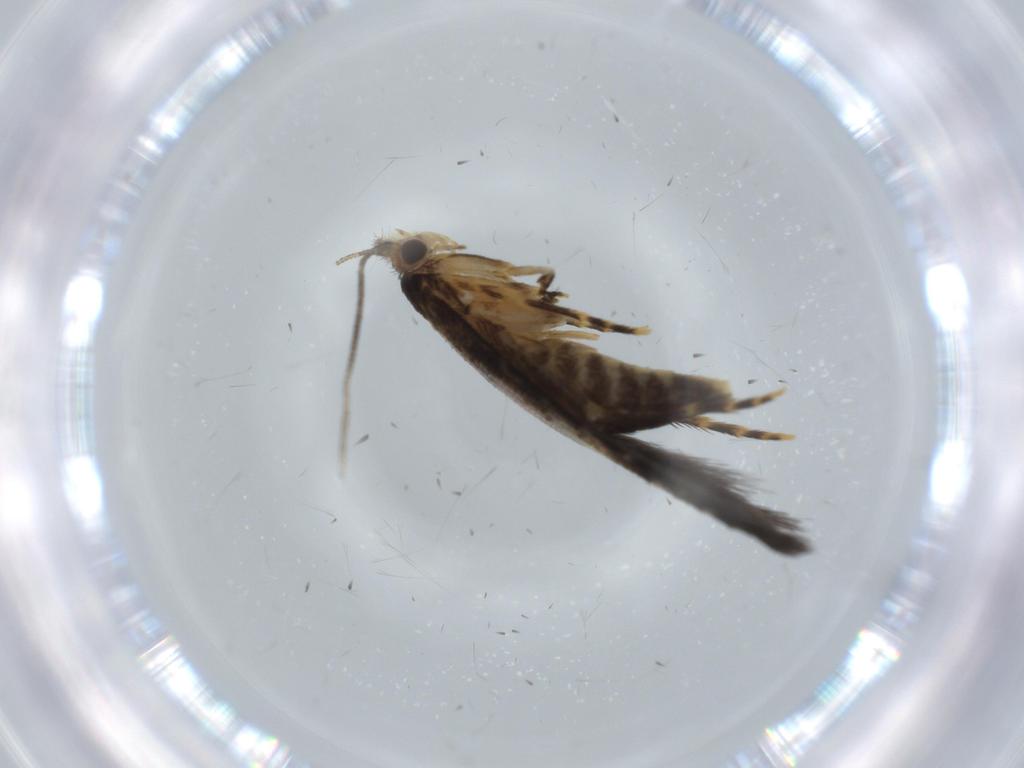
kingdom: Animalia
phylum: Arthropoda
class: Insecta
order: Lepidoptera
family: Tineidae
